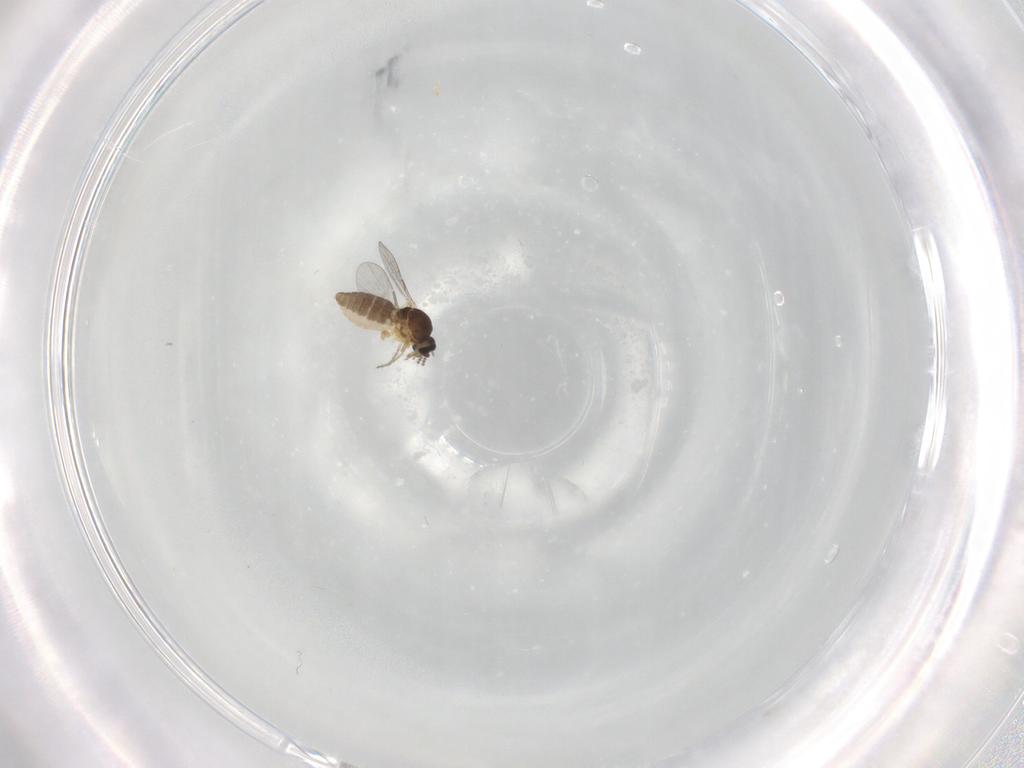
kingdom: Animalia
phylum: Arthropoda
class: Insecta
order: Diptera
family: Ceratopogonidae
